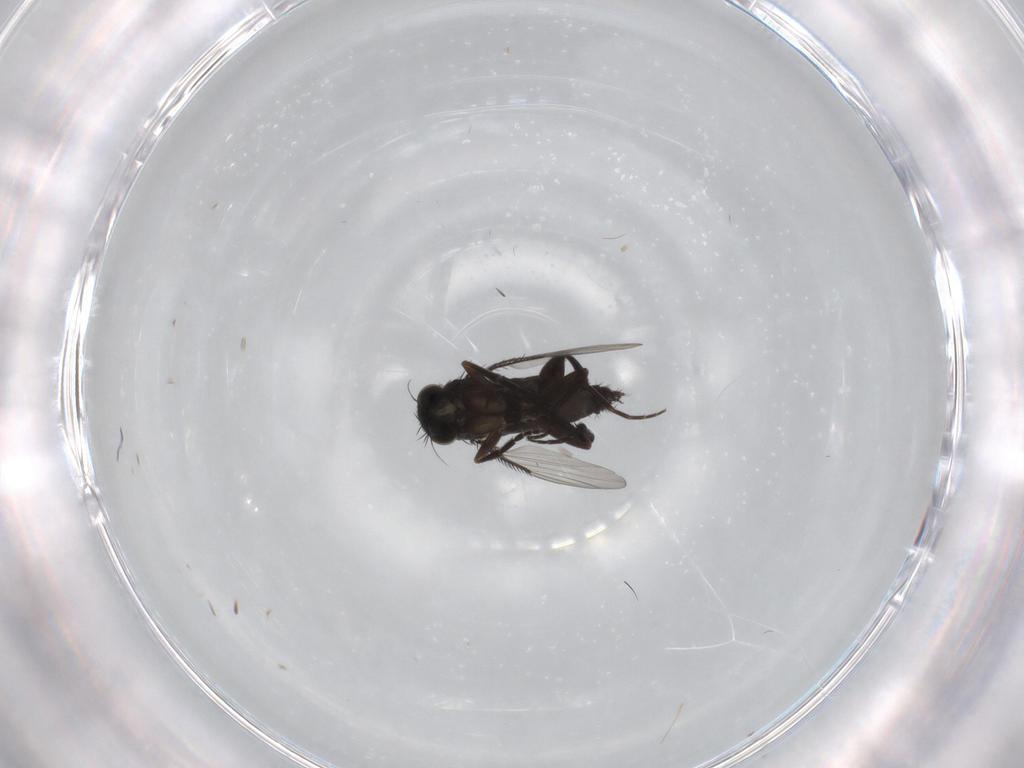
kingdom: Animalia
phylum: Arthropoda
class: Insecta
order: Diptera
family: Phoridae
